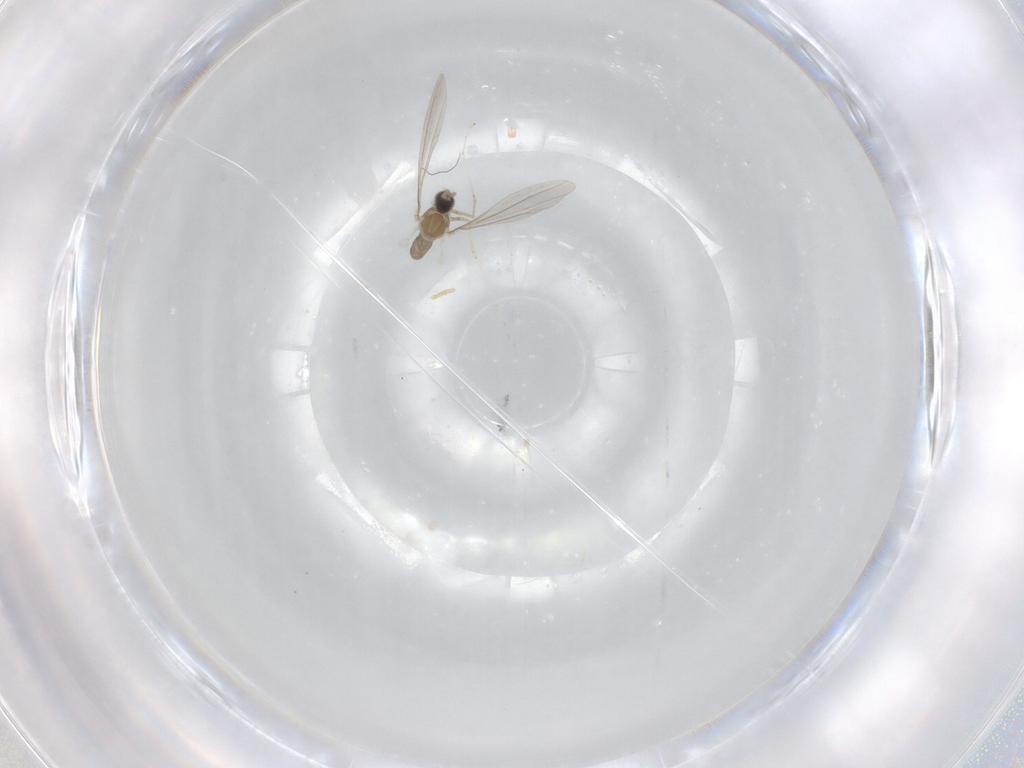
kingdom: Animalia
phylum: Arthropoda
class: Insecta
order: Diptera
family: Cecidomyiidae
